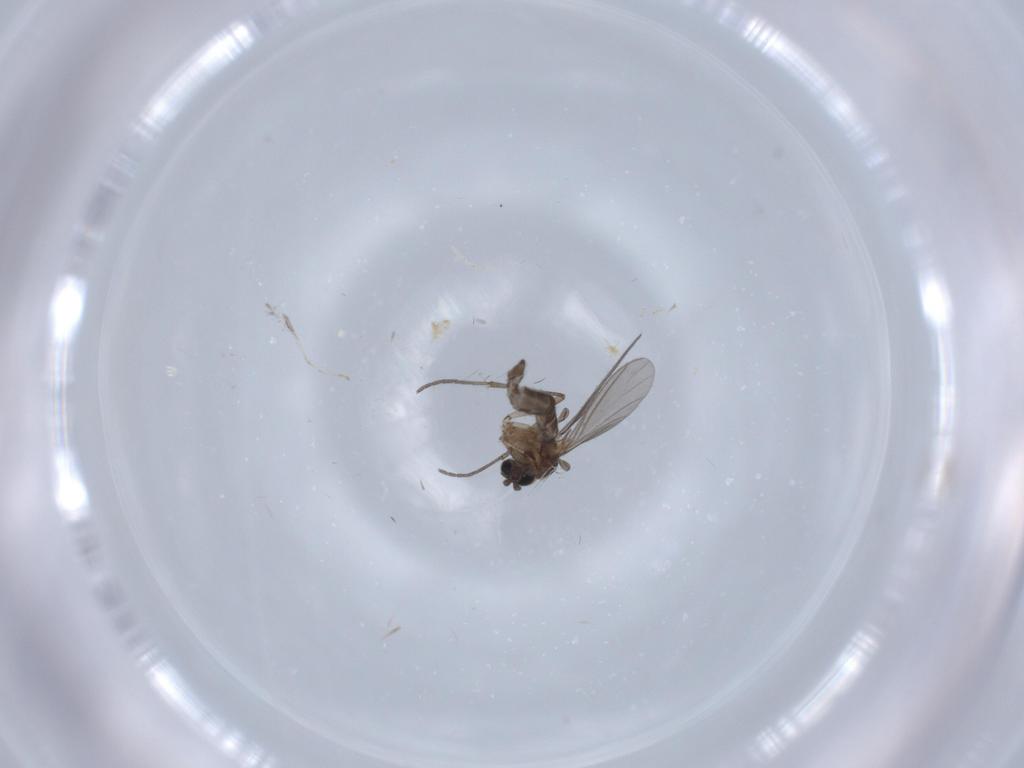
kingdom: Animalia
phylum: Arthropoda
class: Insecta
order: Diptera
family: Sciaridae
